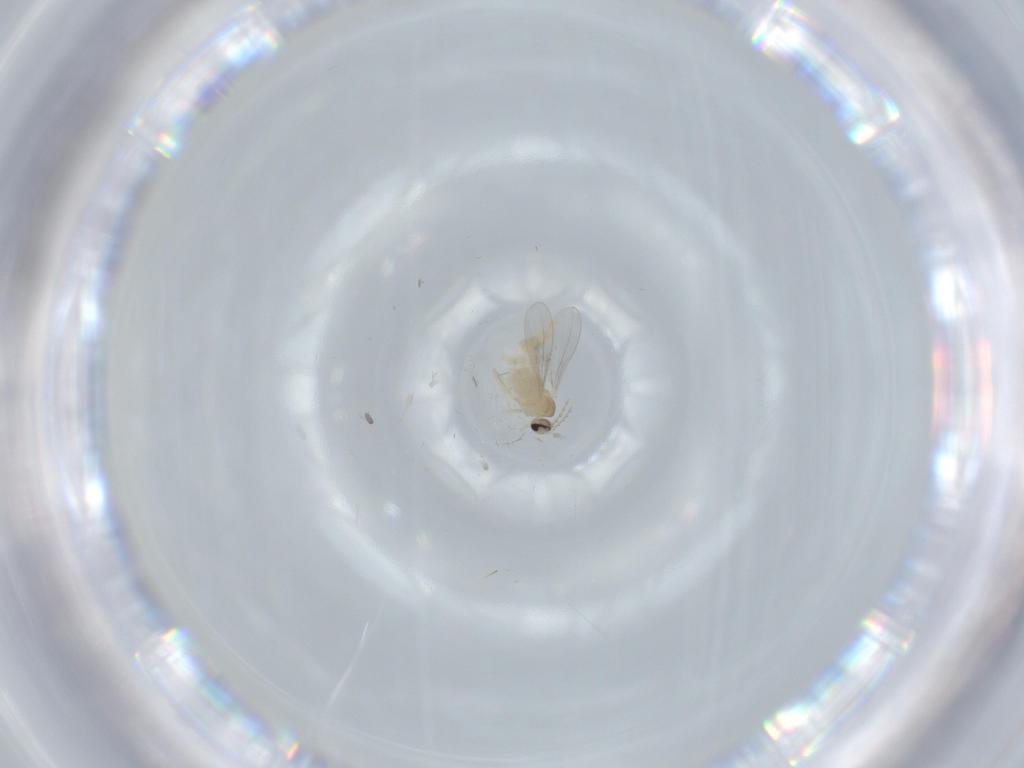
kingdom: Animalia
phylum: Arthropoda
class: Insecta
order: Diptera
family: Cecidomyiidae
